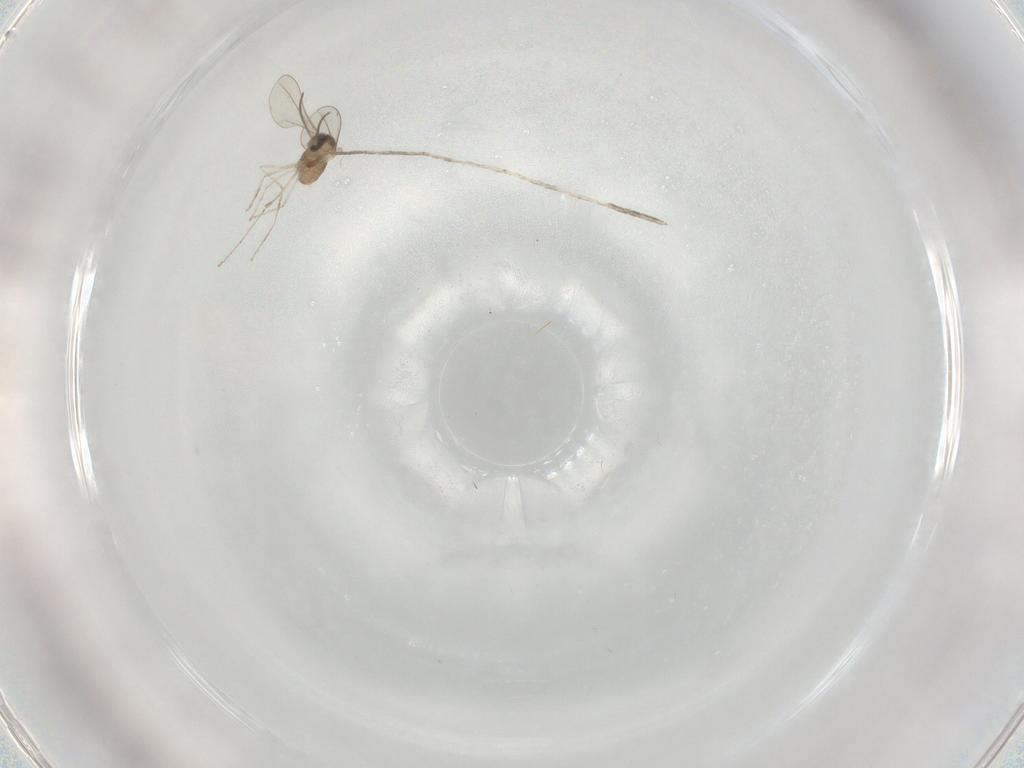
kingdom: Animalia
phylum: Arthropoda
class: Insecta
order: Diptera
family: Cecidomyiidae
